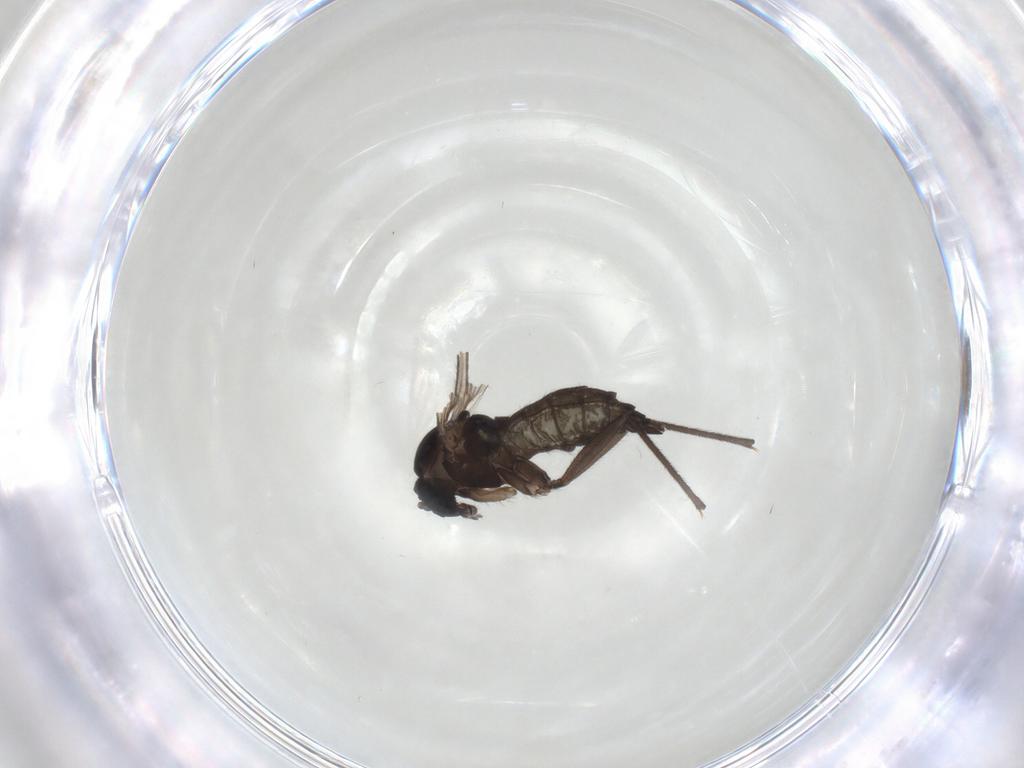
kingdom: Animalia
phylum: Arthropoda
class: Insecta
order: Diptera
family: Sciaridae
